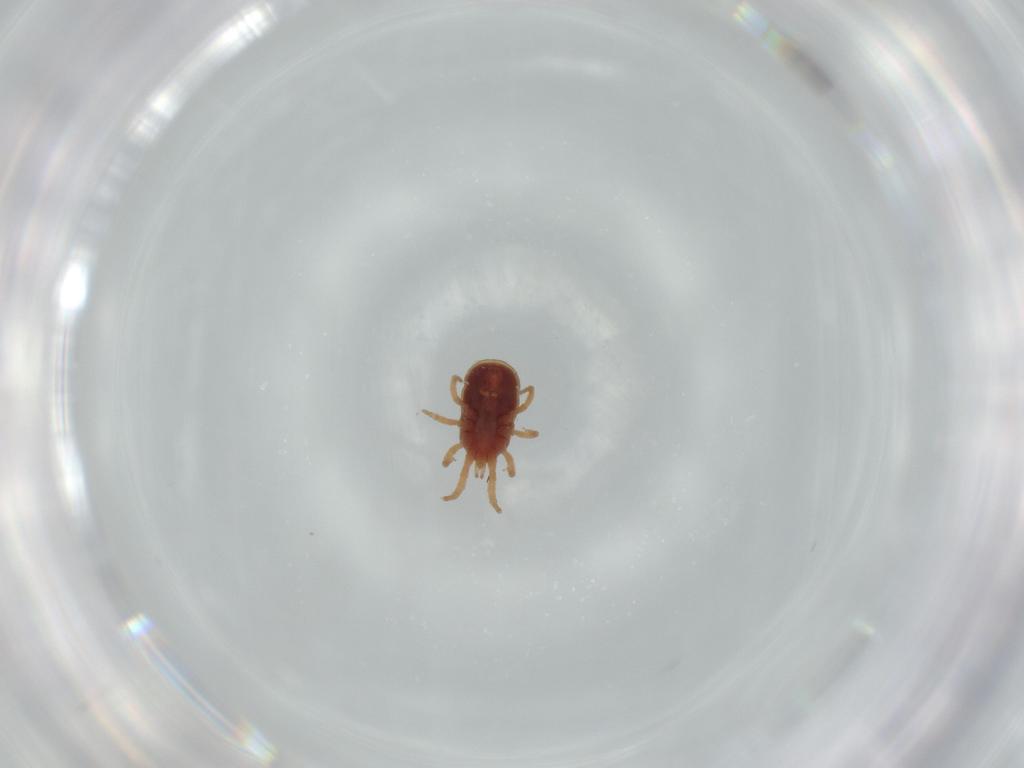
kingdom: Animalia
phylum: Arthropoda
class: Arachnida
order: Mesostigmata
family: Dermanyssidae
